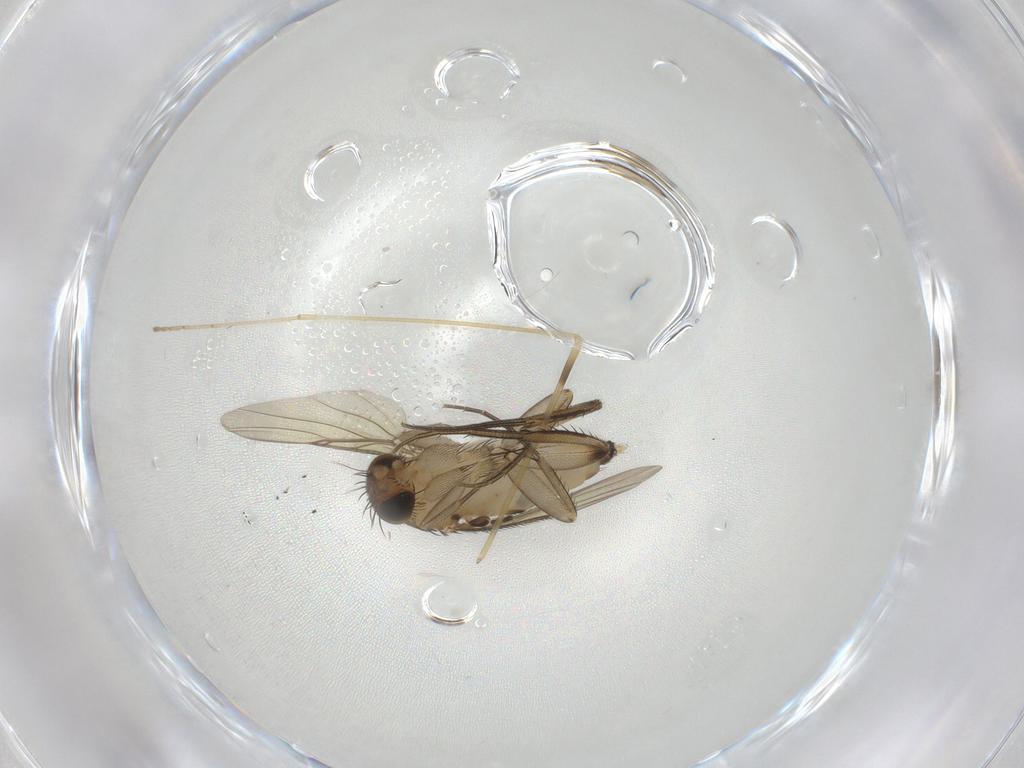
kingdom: Animalia
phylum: Arthropoda
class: Insecta
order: Diptera
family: Phoridae
